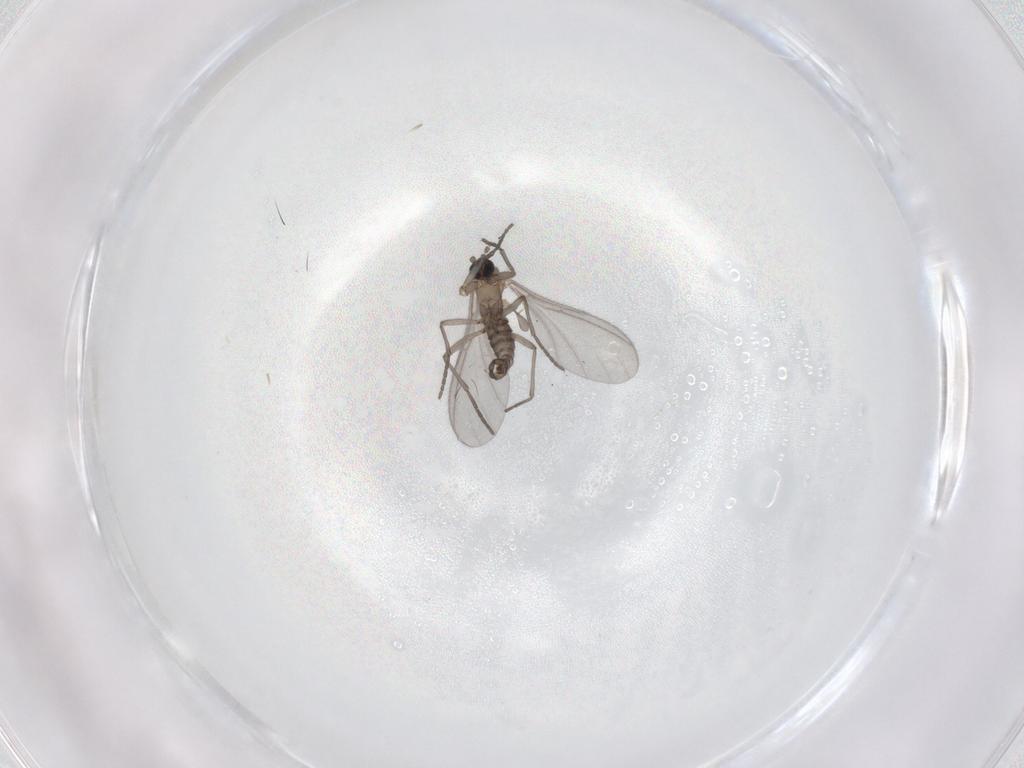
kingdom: Animalia
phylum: Arthropoda
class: Insecta
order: Diptera
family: Sciaridae
